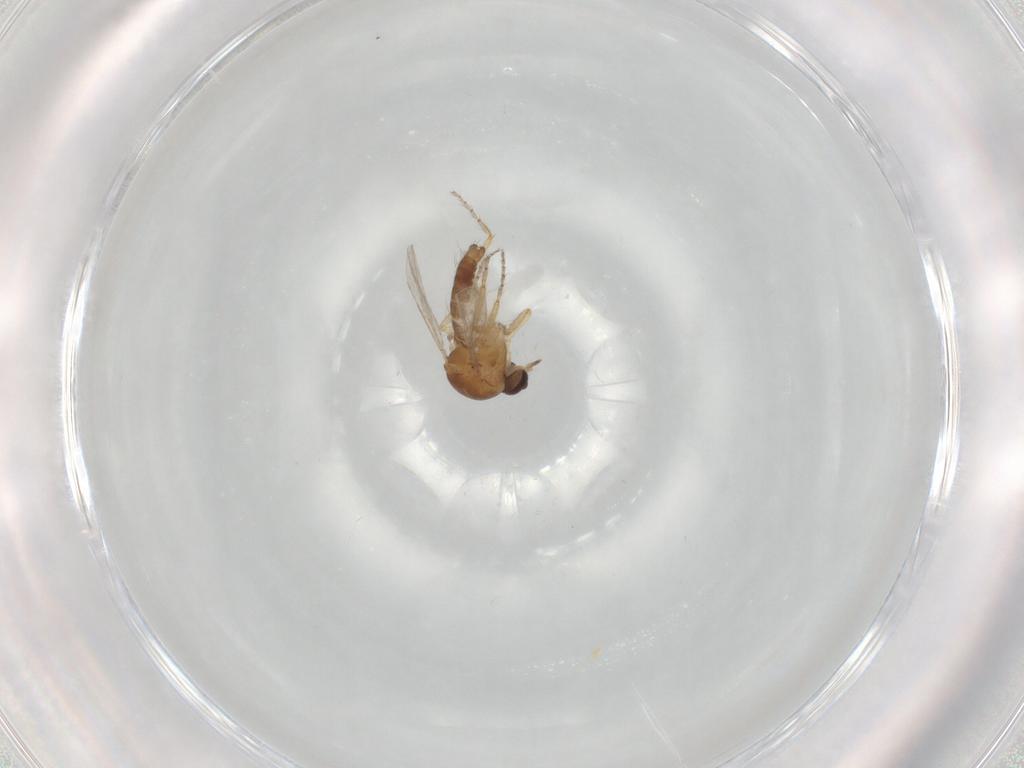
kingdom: Animalia
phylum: Arthropoda
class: Insecta
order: Diptera
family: Ceratopogonidae
